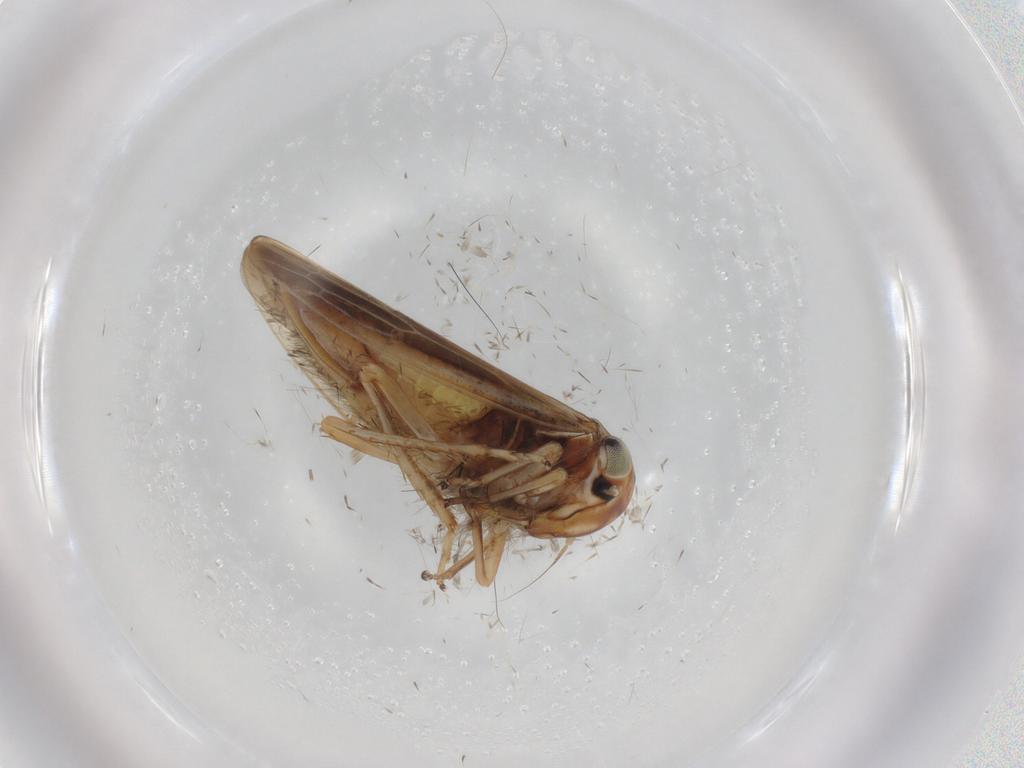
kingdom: Animalia
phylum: Arthropoda
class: Insecta
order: Hemiptera
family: Cicadellidae
